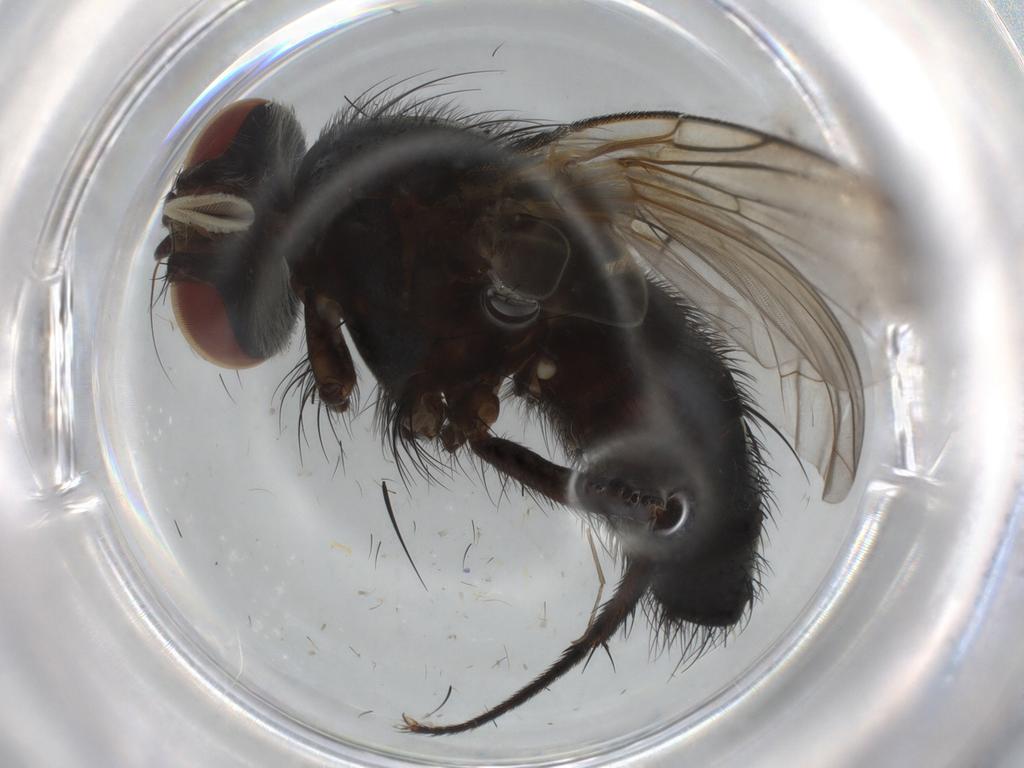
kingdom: Animalia
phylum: Arthropoda
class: Insecta
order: Diptera
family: Tachinidae
